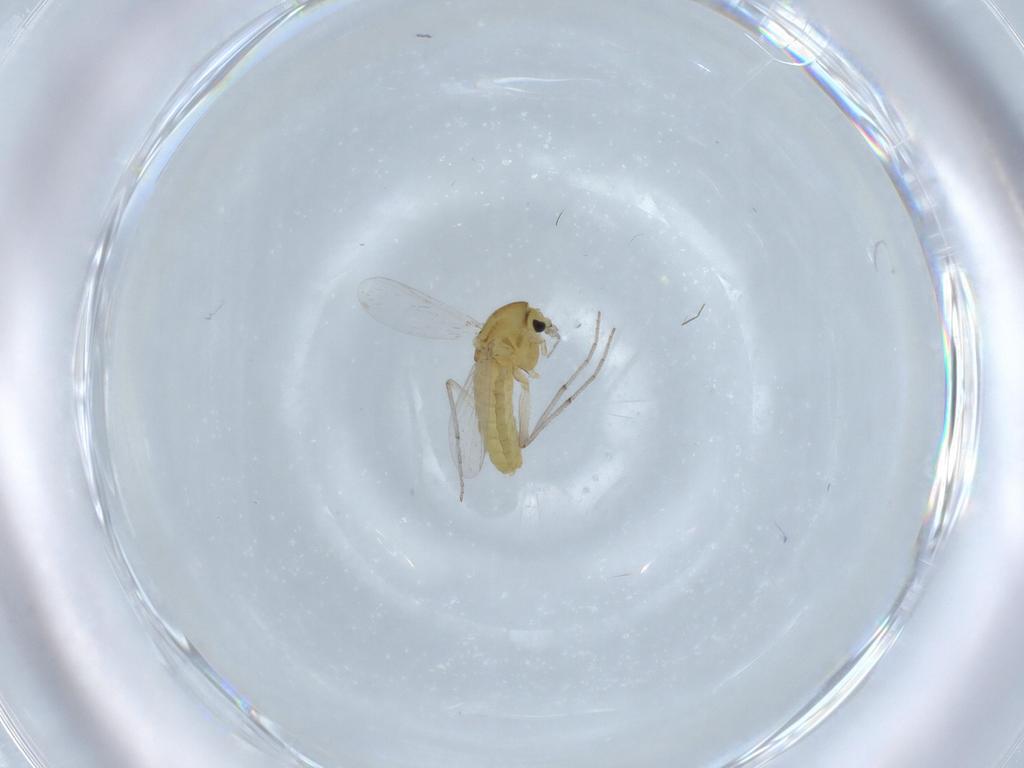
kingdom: Animalia
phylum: Arthropoda
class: Insecta
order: Diptera
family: Chironomidae
